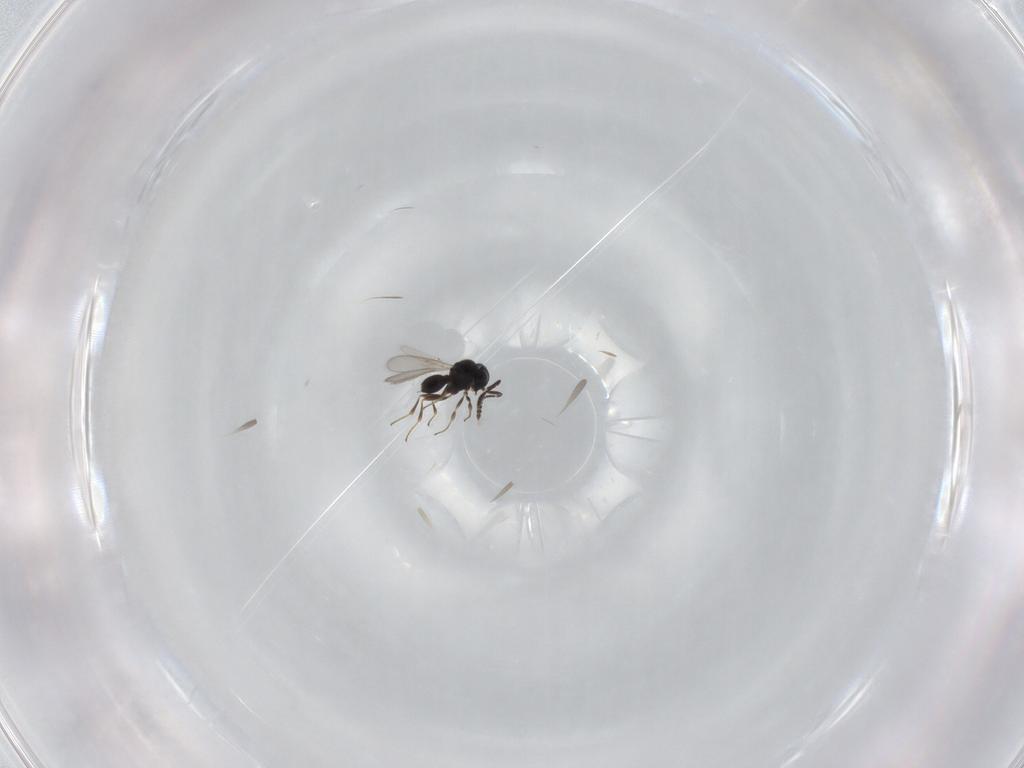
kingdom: Animalia
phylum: Arthropoda
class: Insecta
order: Hymenoptera
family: Scelionidae
